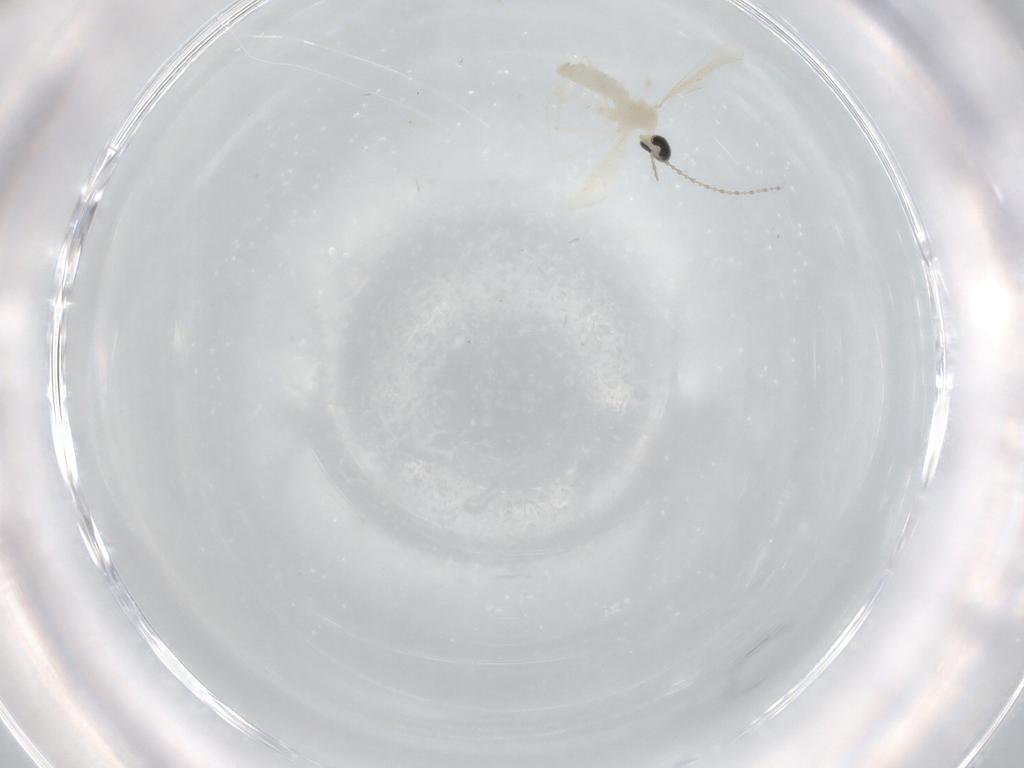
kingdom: Animalia
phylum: Arthropoda
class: Insecta
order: Diptera
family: Cecidomyiidae
